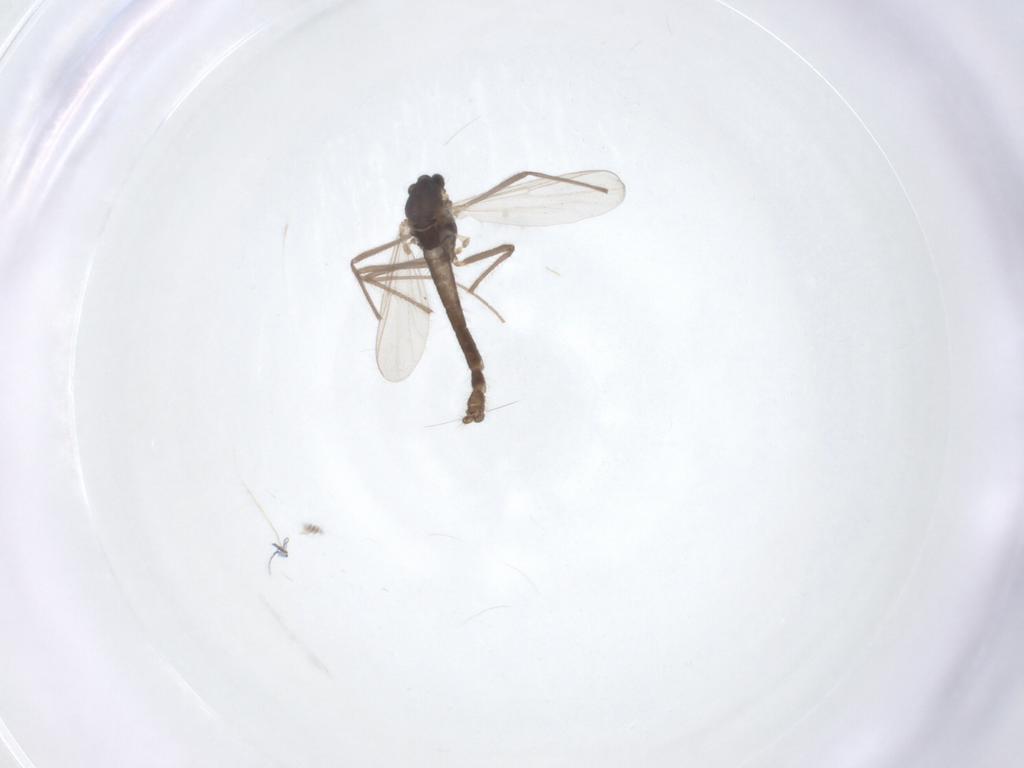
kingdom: Animalia
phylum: Arthropoda
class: Insecta
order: Diptera
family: Chironomidae
